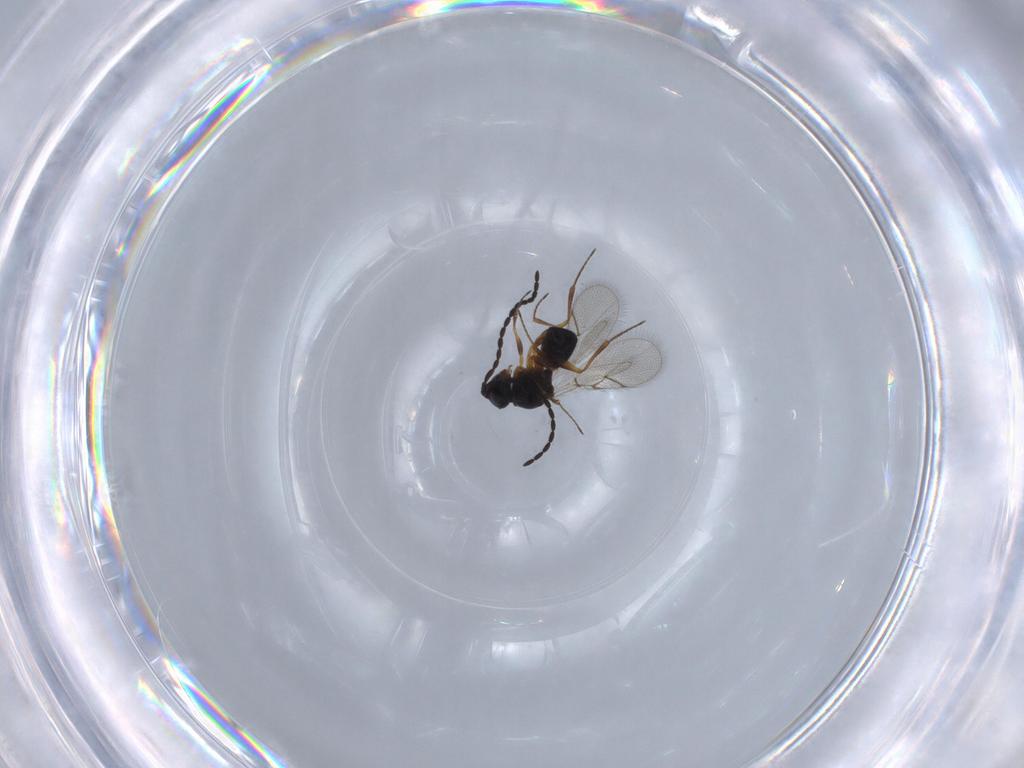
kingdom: Animalia
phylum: Arthropoda
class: Insecta
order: Hymenoptera
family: Figitidae
